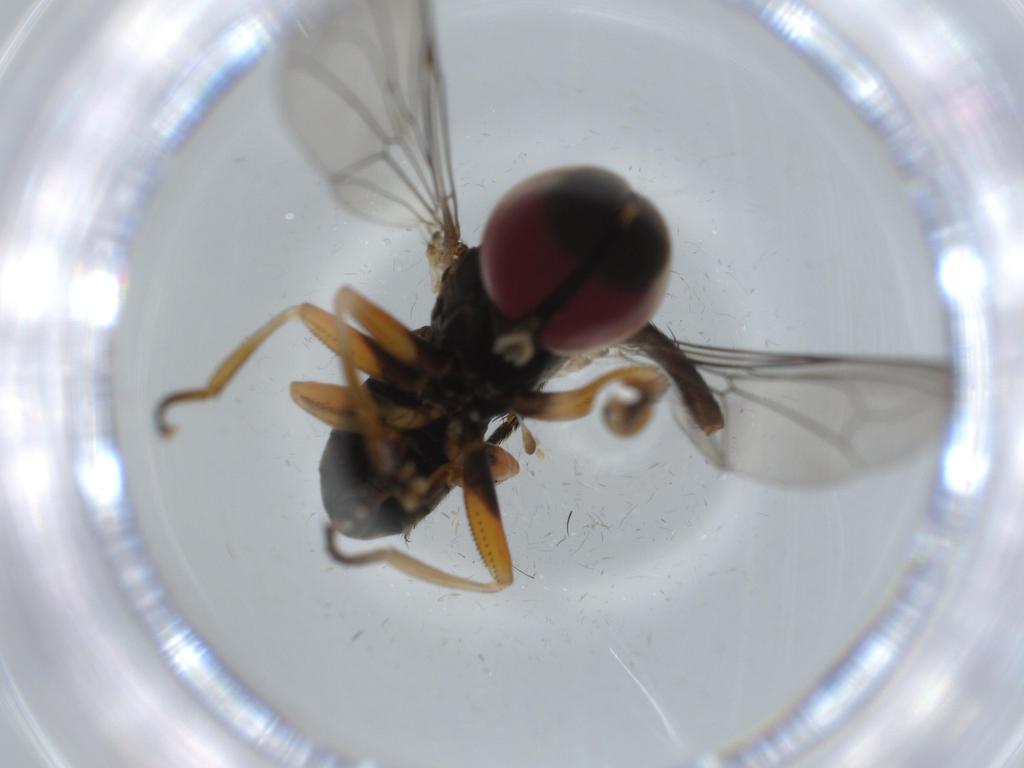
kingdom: Animalia
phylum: Arthropoda
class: Insecta
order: Diptera
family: Pipunculidae
